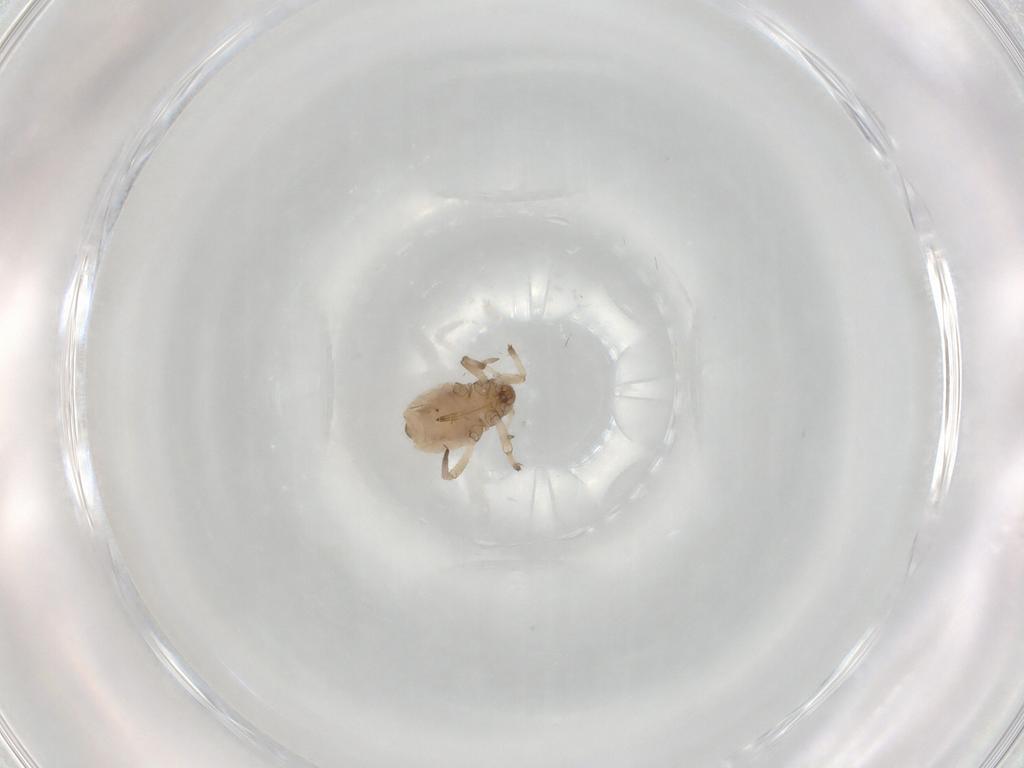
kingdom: Animalia
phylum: Arthropoda
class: Insecta
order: Hemiptera
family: Aphididae
